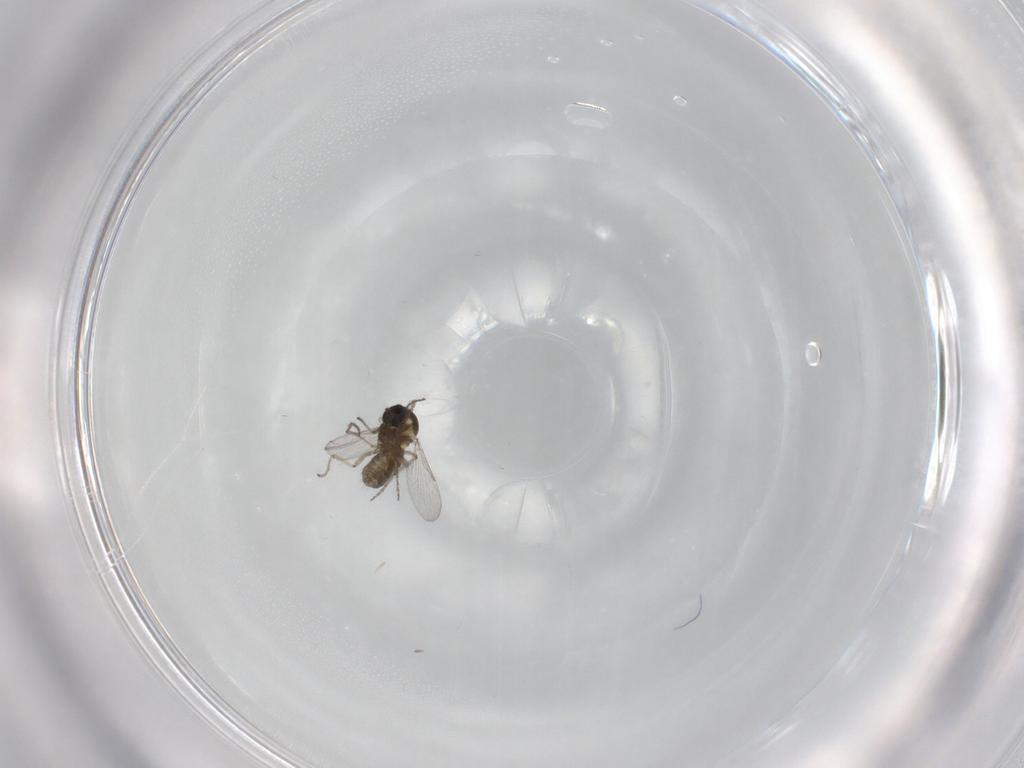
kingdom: Animalia
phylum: Arthropoda
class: Insecta
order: Diptera
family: Ceratopogonidae
